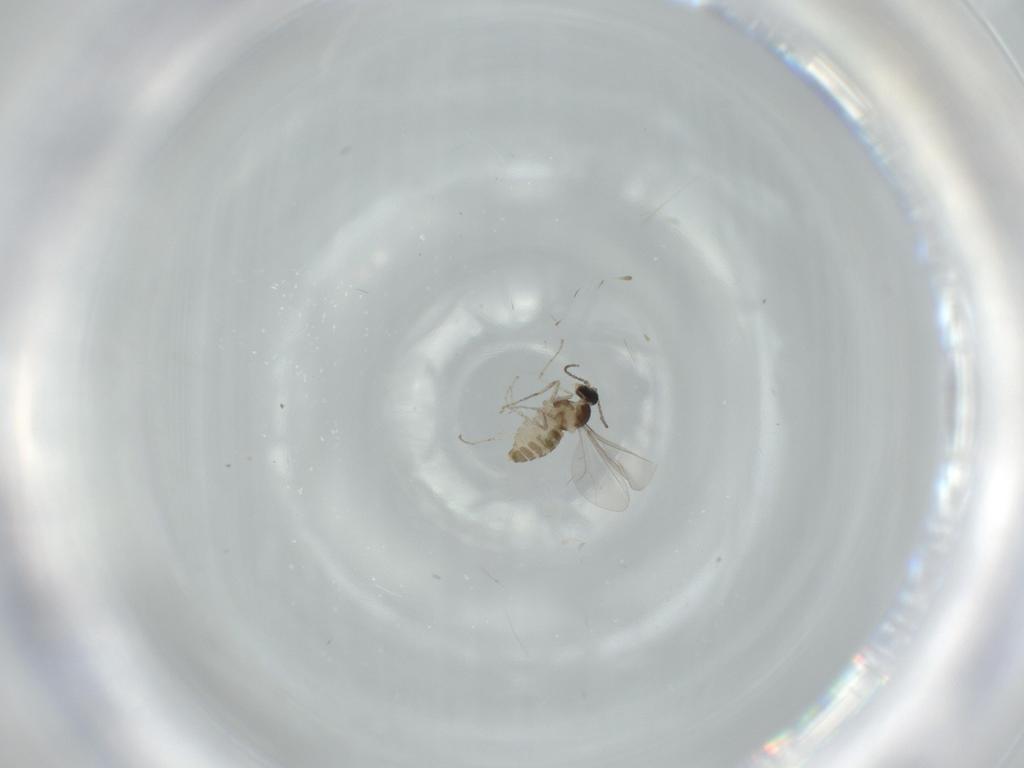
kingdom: Animalia
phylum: Arthropoda
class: Insecta
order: Diptera
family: Cecidomyiidae
